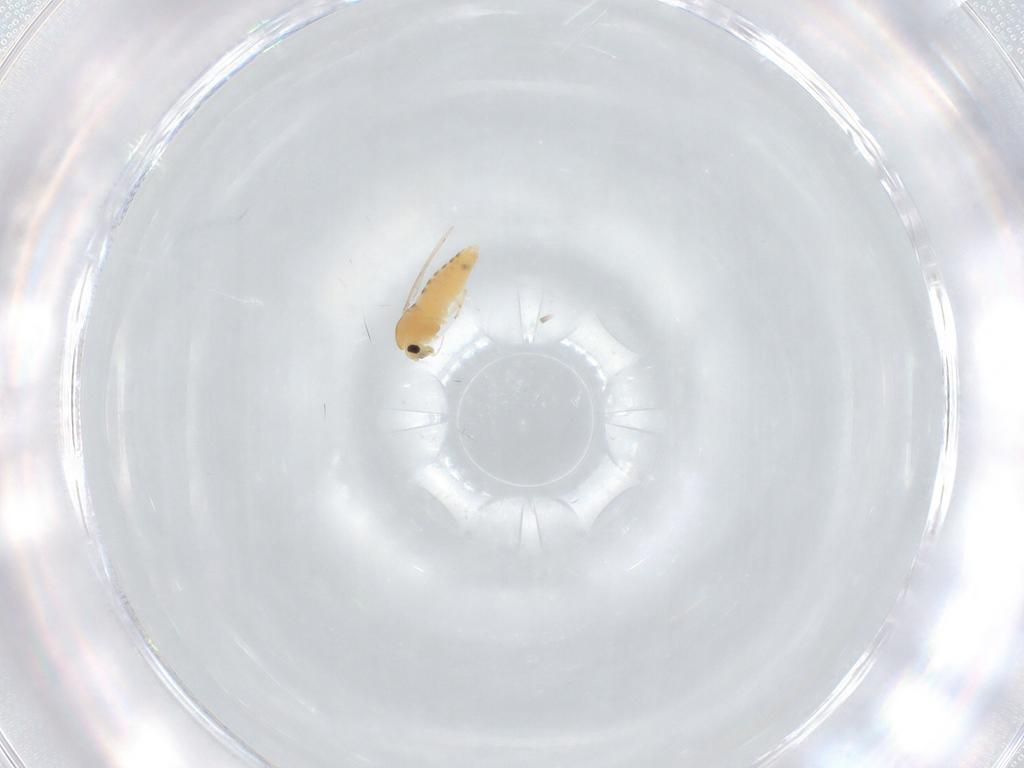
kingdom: Animalia
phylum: Arthropoda
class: Insecta
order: Diptera
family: Chironomidae
